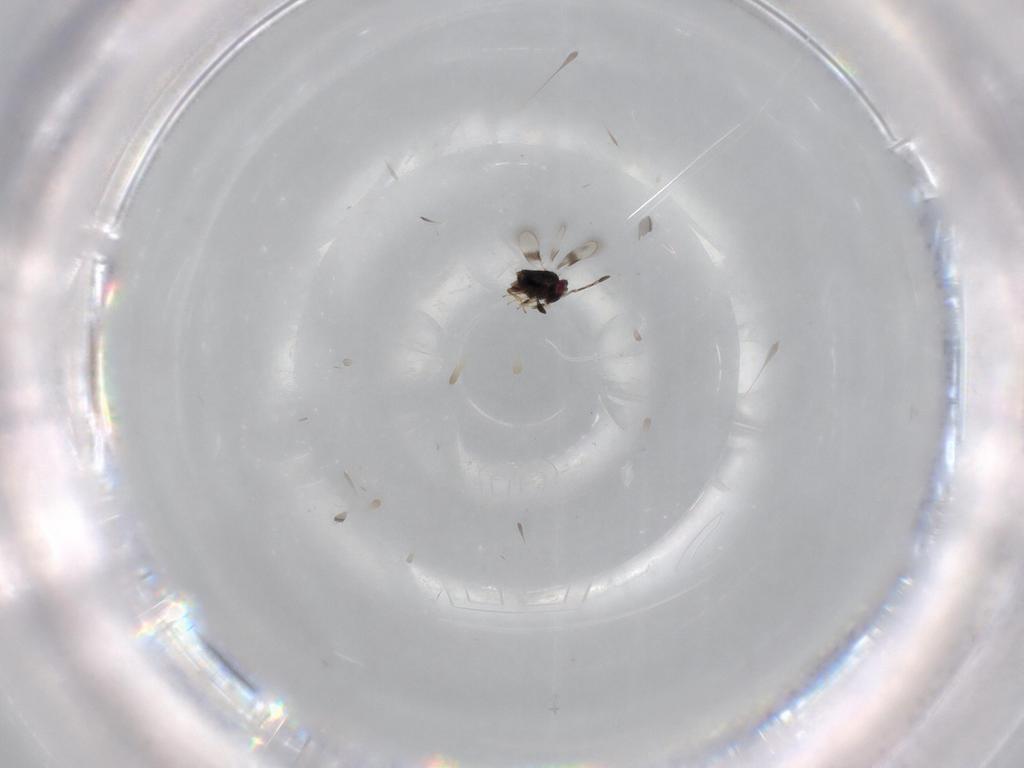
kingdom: Animalia
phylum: Arthropoda
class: Insecta
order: Hymenoptera
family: Azotidae
